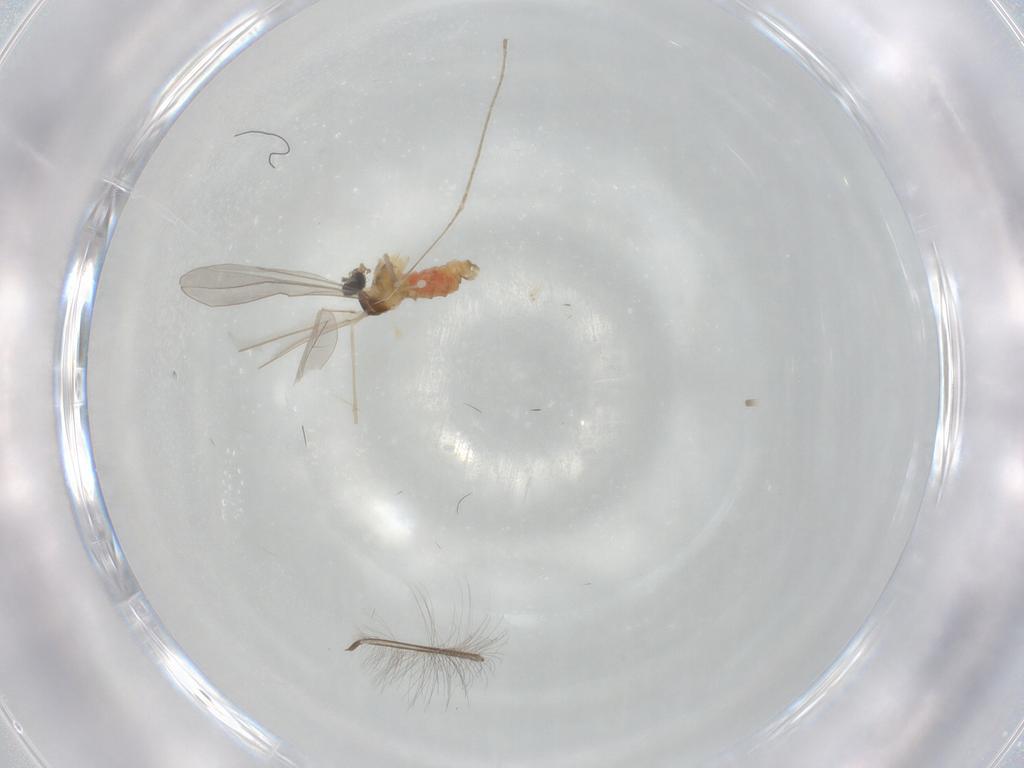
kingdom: Animalia
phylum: Arthropoda
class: Insecta
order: Diptera
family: Cecidomyiidae
